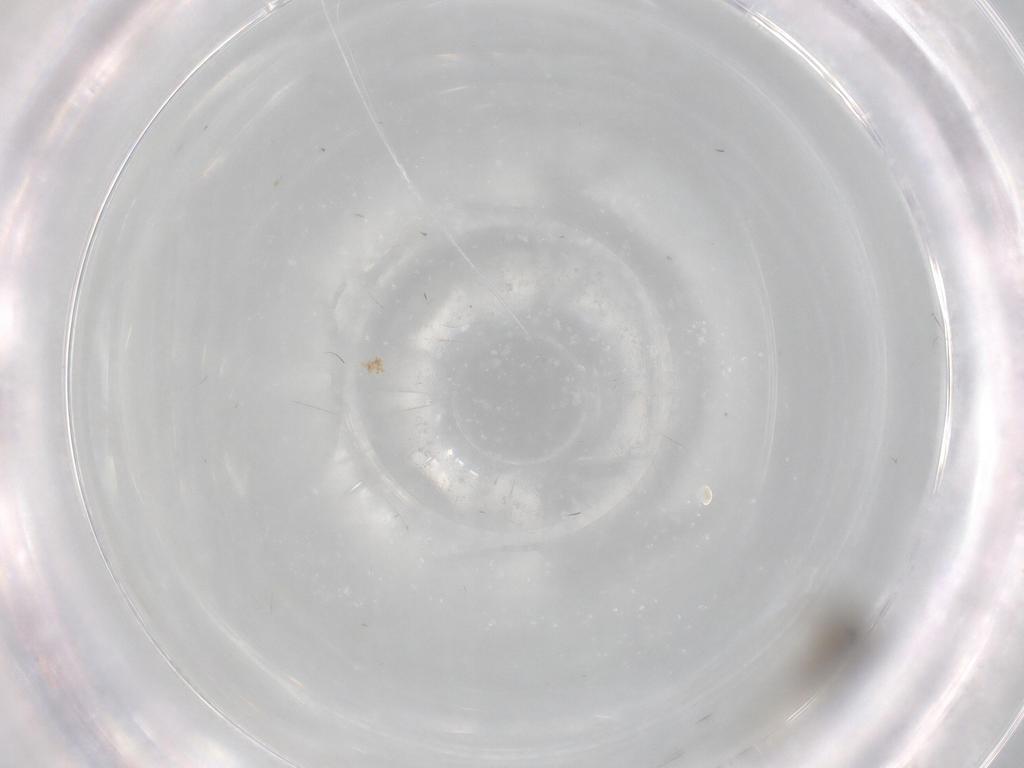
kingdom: Animalia
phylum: Arthropoda
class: Insecta
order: Diptera
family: Phoridae
